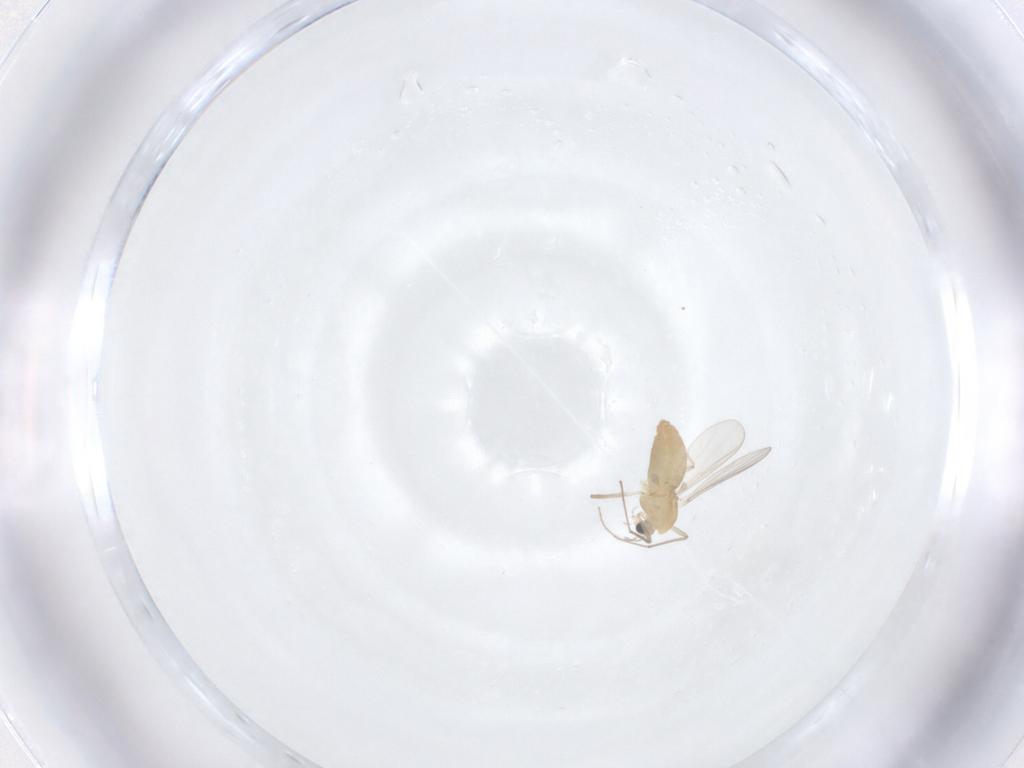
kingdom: Animalia
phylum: Arthropoda
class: Insecta
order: Diptera
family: Chironomidae
